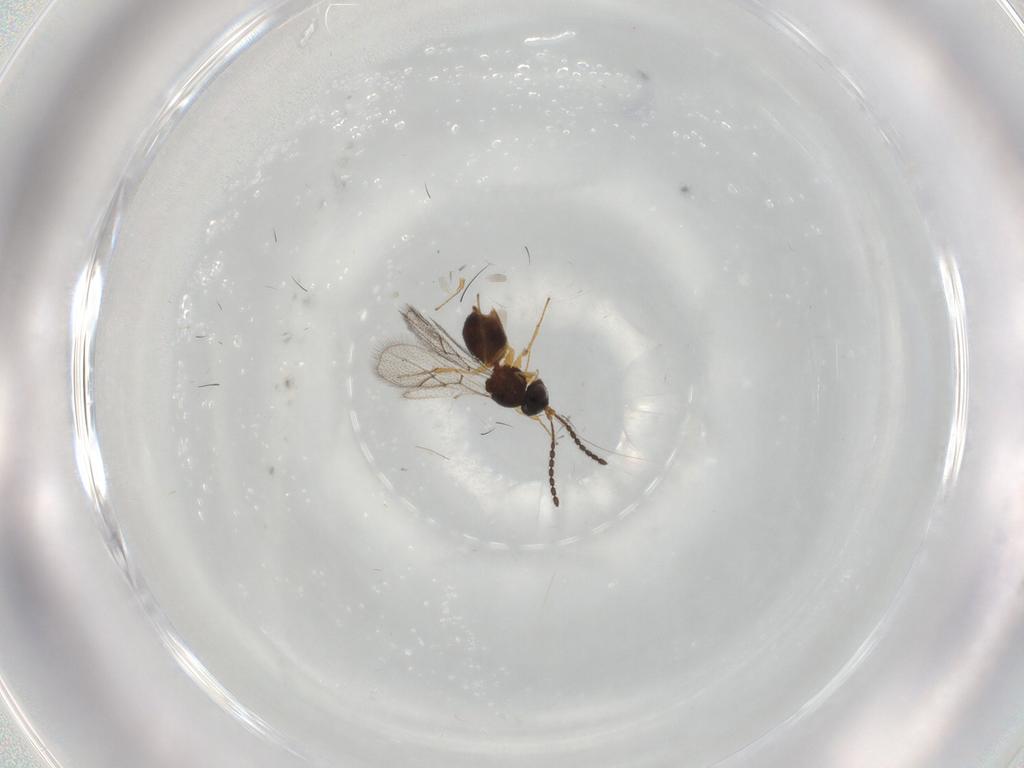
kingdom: Animalia
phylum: Arthropoda
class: Insecta
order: Hymenoptera
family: Figitidae
